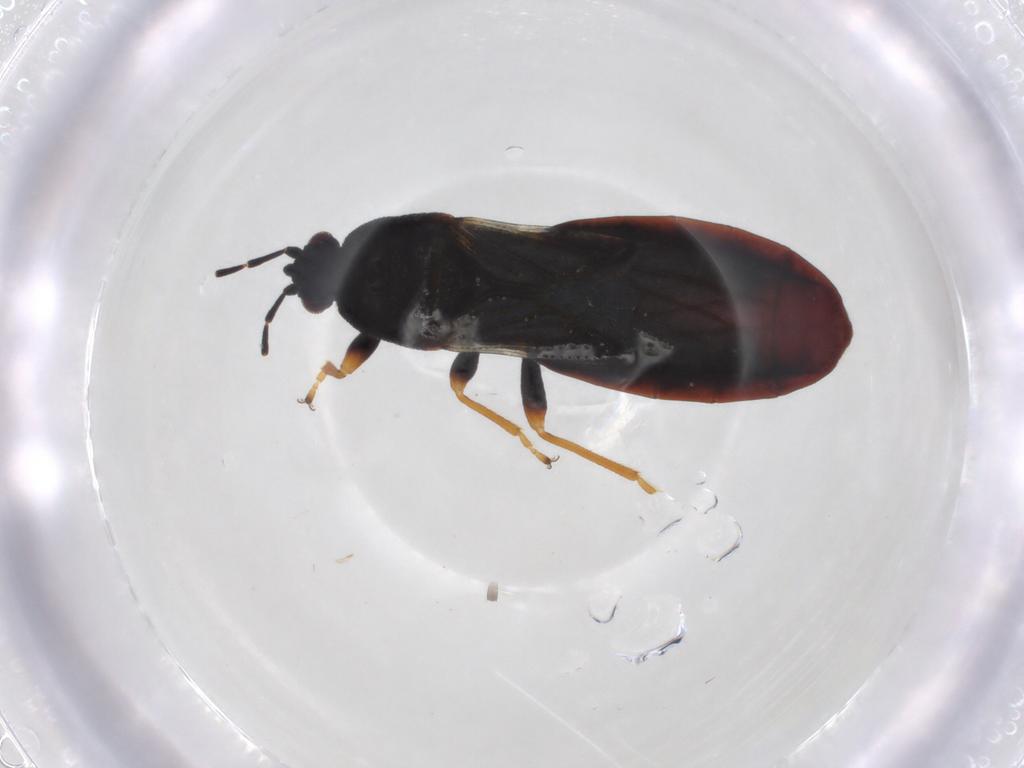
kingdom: Animalia
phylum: Arthropoda
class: Insecta
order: Hemiptera
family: Blissidae
